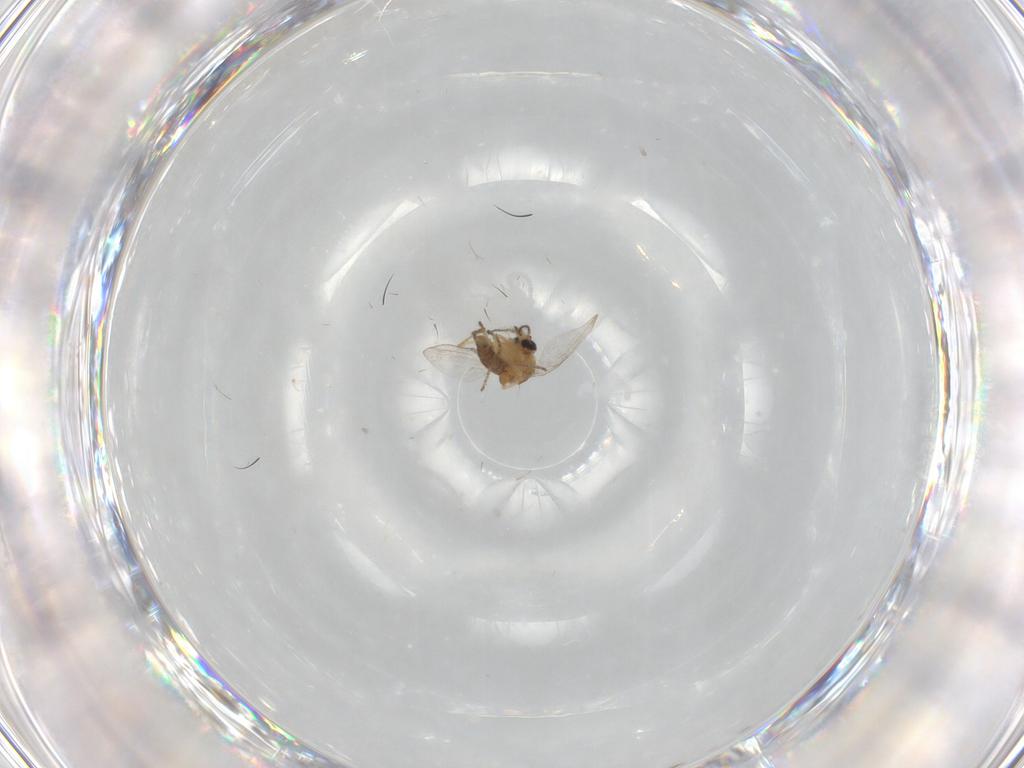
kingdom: Animalia
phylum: Arthropoda
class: Insecta
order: Diptera
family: Ceratopogonidae
